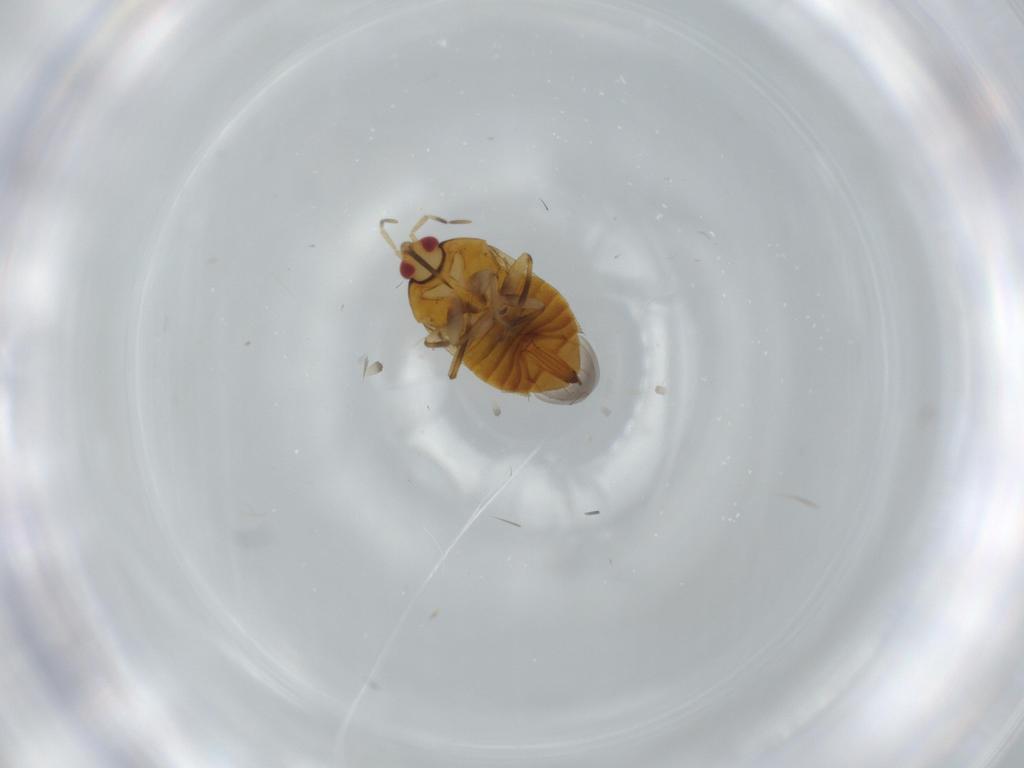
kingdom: Animalia
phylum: Arthropoda
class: Insecta
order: Hemiptera
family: Anthocoridae
